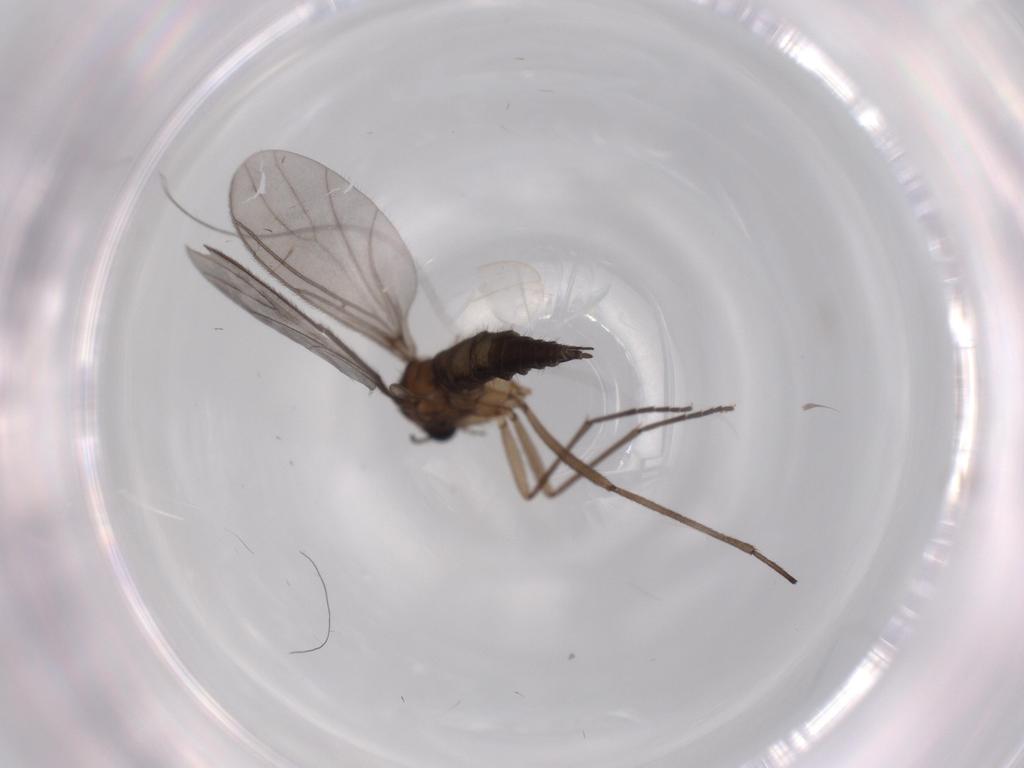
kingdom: Animalia
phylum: Arthropoda
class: Insecta
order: Diptera
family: Sciaridae
